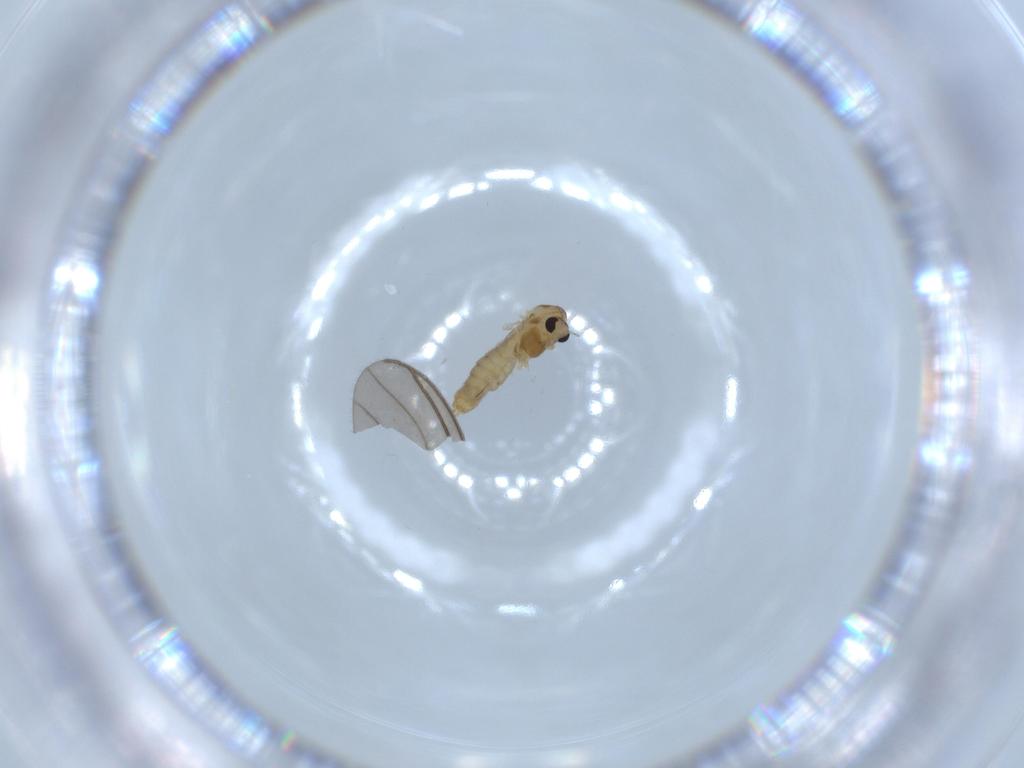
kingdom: Animalia
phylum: Arthropoda
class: Insecta
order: Diptera
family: Chironomidae
